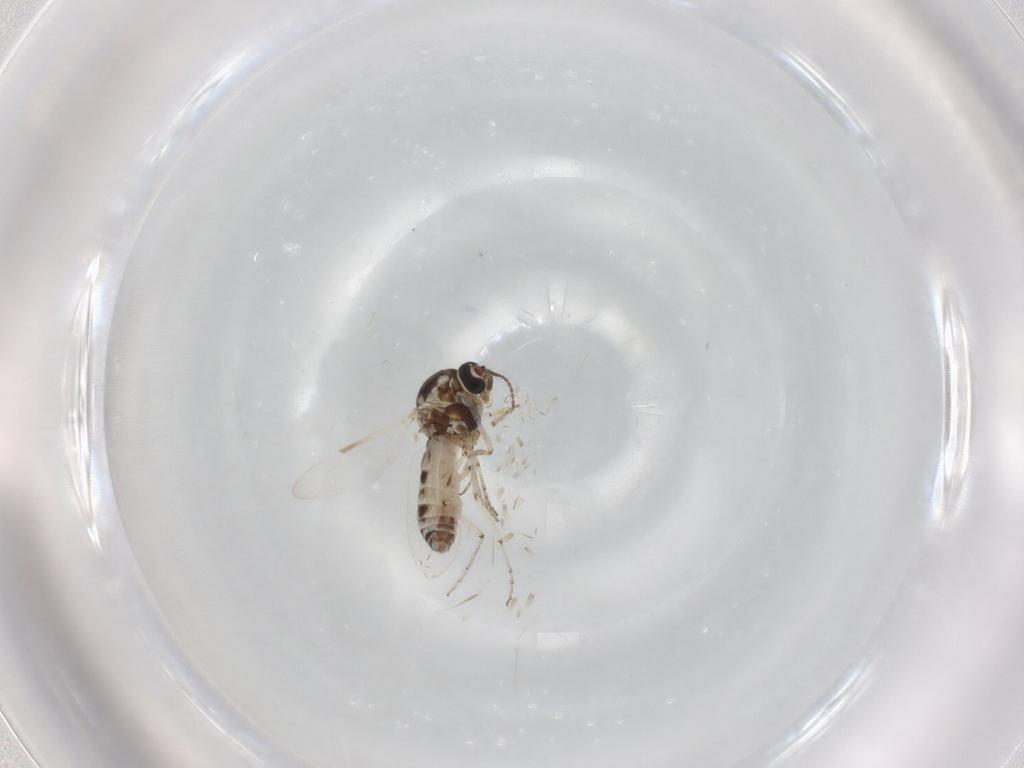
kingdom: Animalia
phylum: Arthropoda
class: Insecta
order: Diptera
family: Ceratopogonidae
